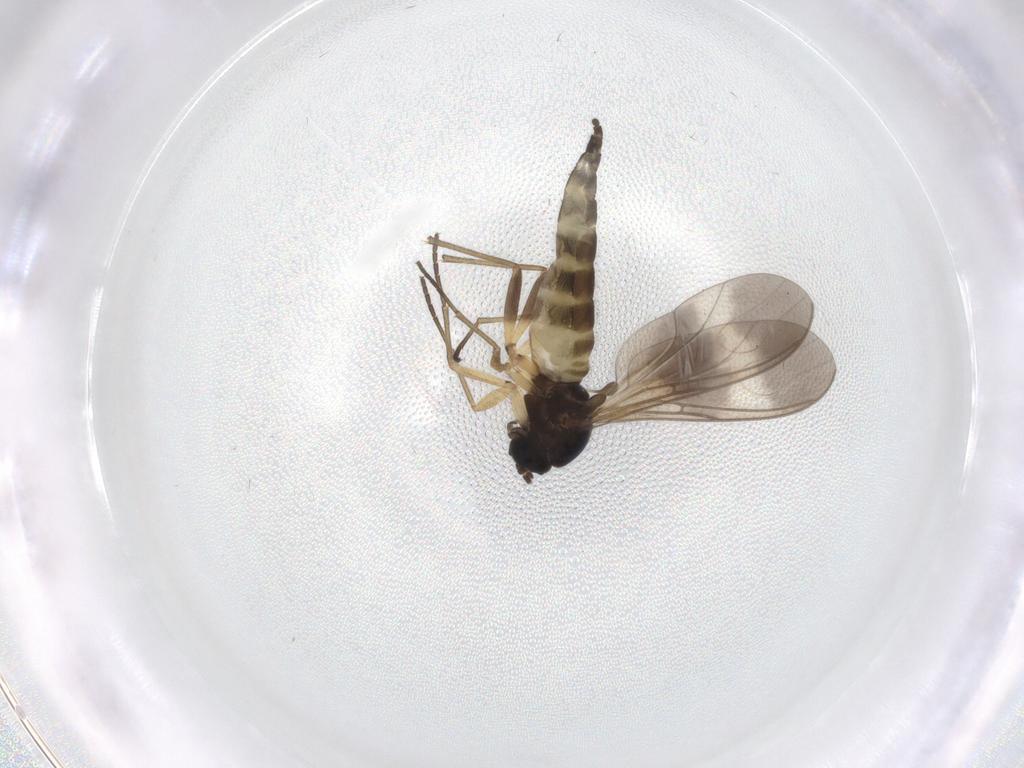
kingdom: Animalia
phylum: Arthropoda
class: Insecta
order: Diptera
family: Sciaridae
